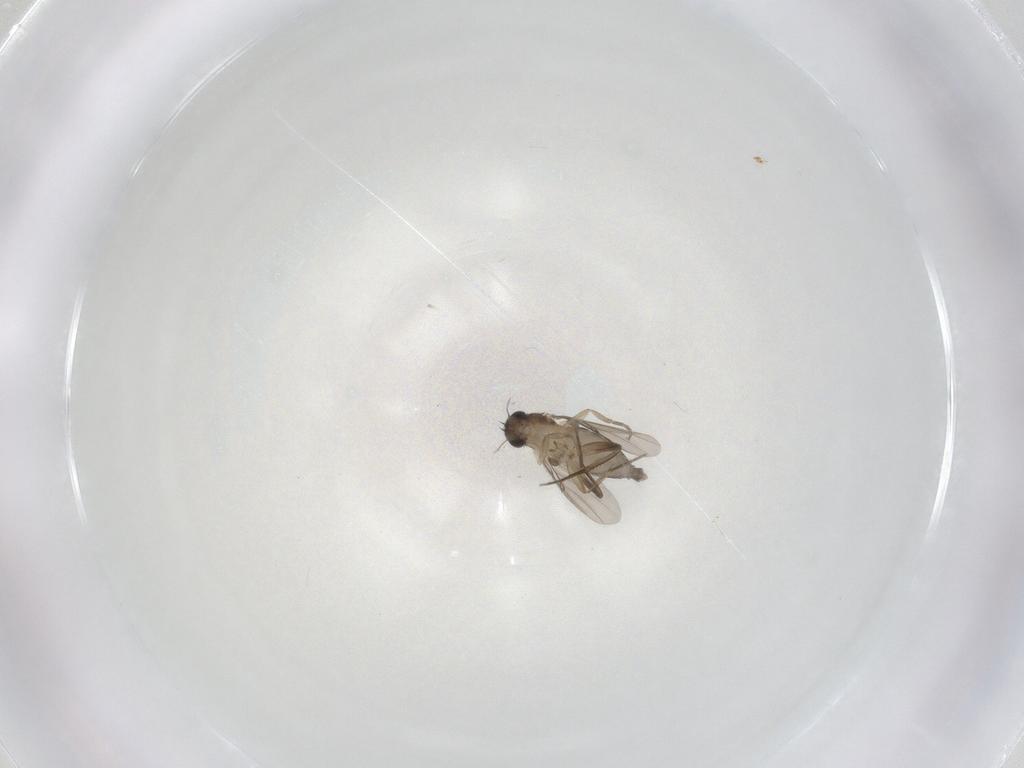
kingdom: Animalia
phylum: Arthropoda
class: Insecta
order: Diptera
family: Phoridae
